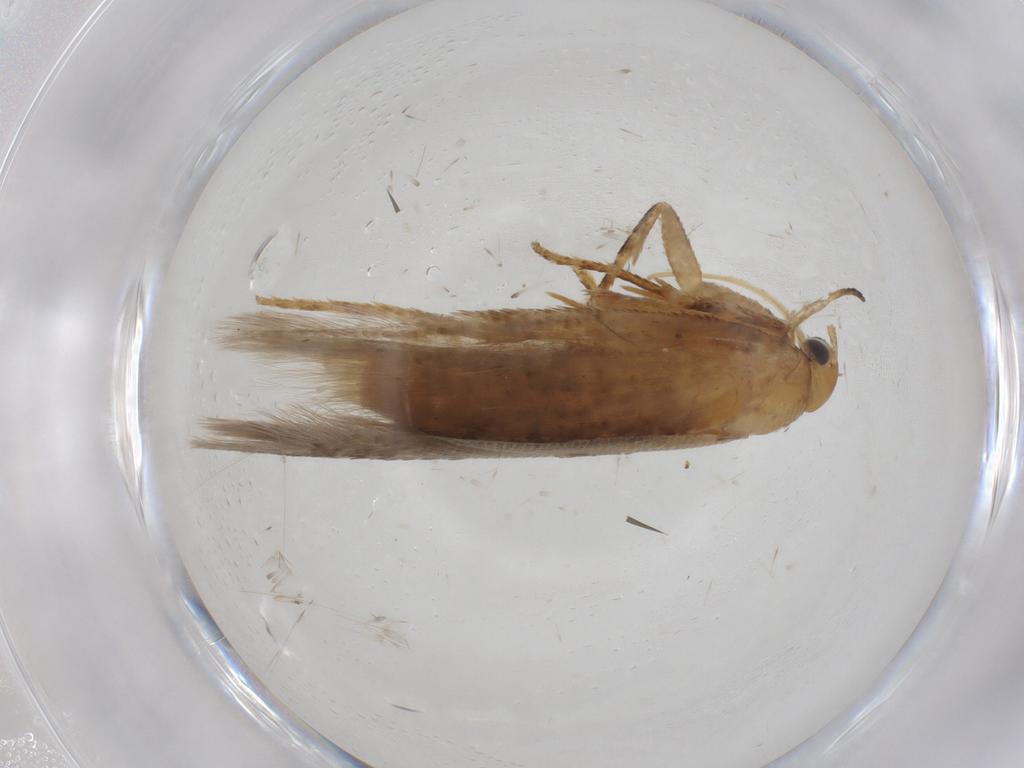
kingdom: Animalia
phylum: Arthropoda
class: Insecta
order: Lepidoptera
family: Gelechiidae
